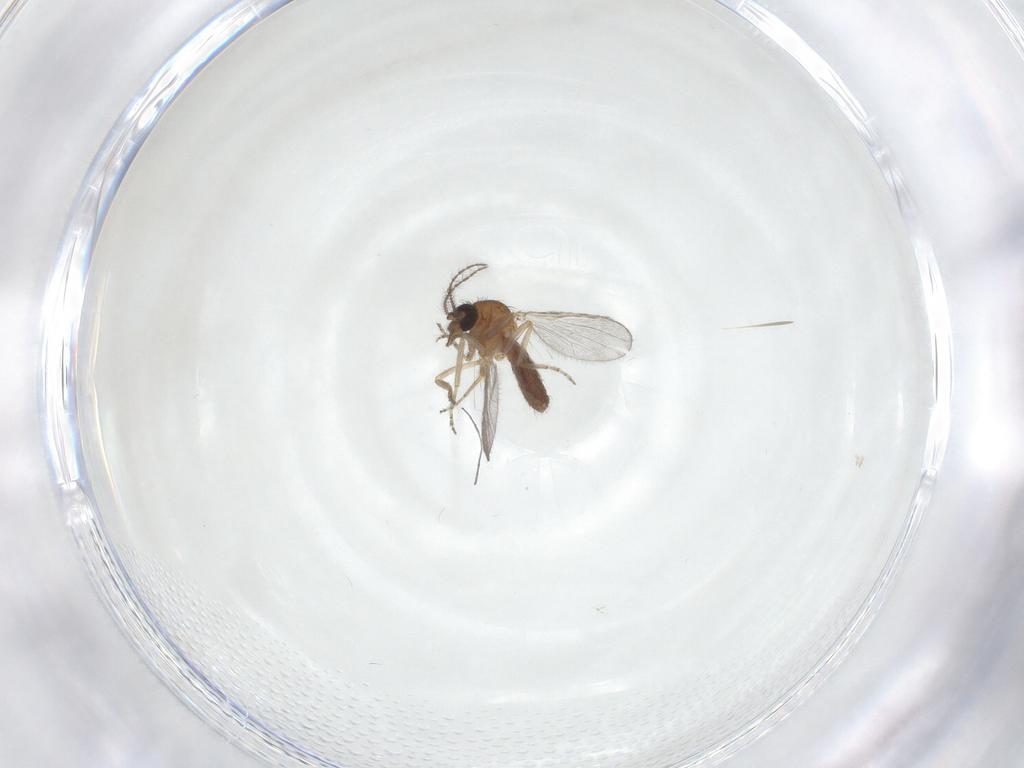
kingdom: Animalia
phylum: Arthropoda
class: Insecta
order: Diptera
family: Ceratopogonidae
